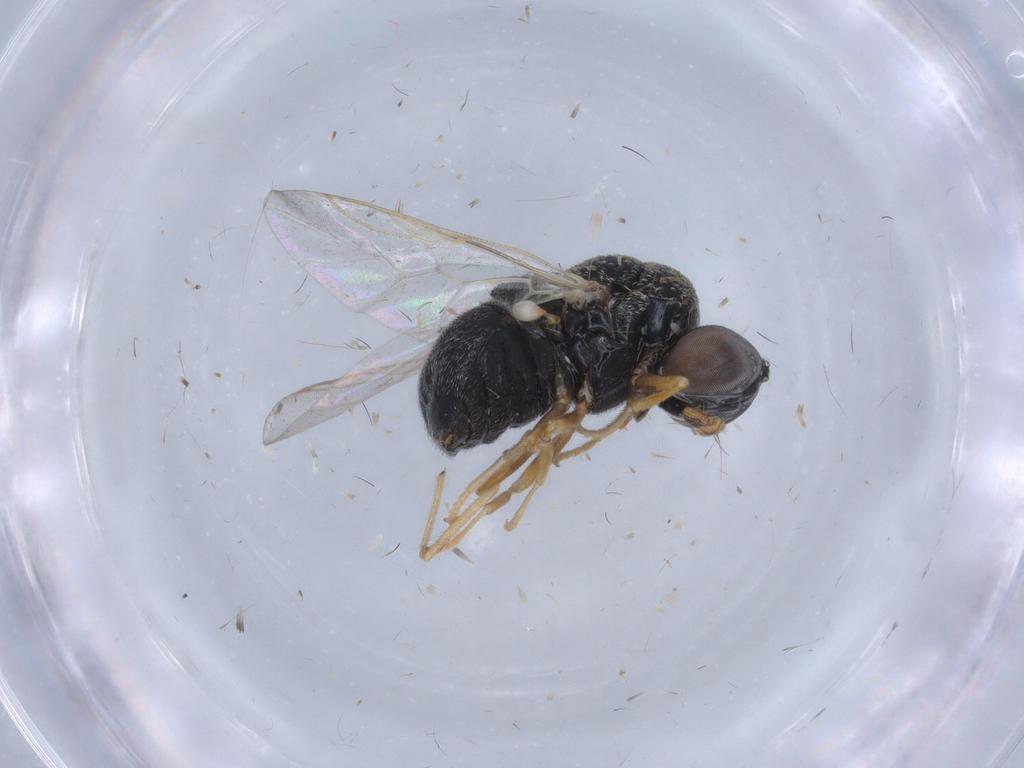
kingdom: Animalia
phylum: Arthropoda
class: Insecta
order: Diptera
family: Stratiomyidae
